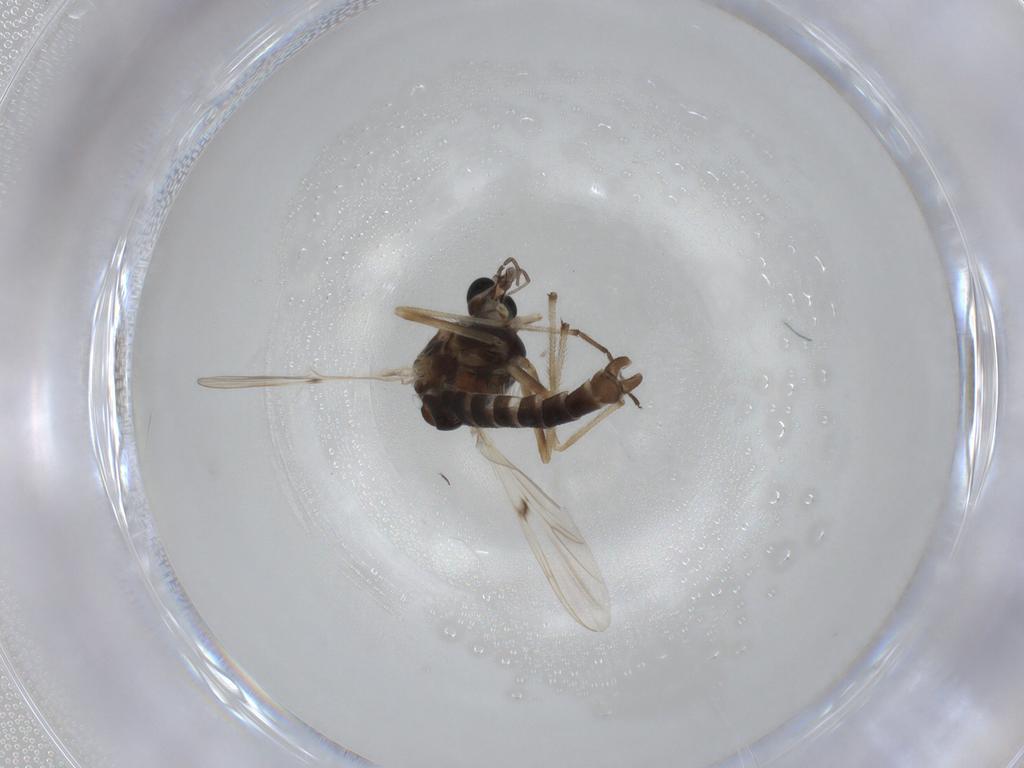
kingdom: Animalia
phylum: Arthropoda
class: Insecta
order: Diptera
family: Chironomidae
